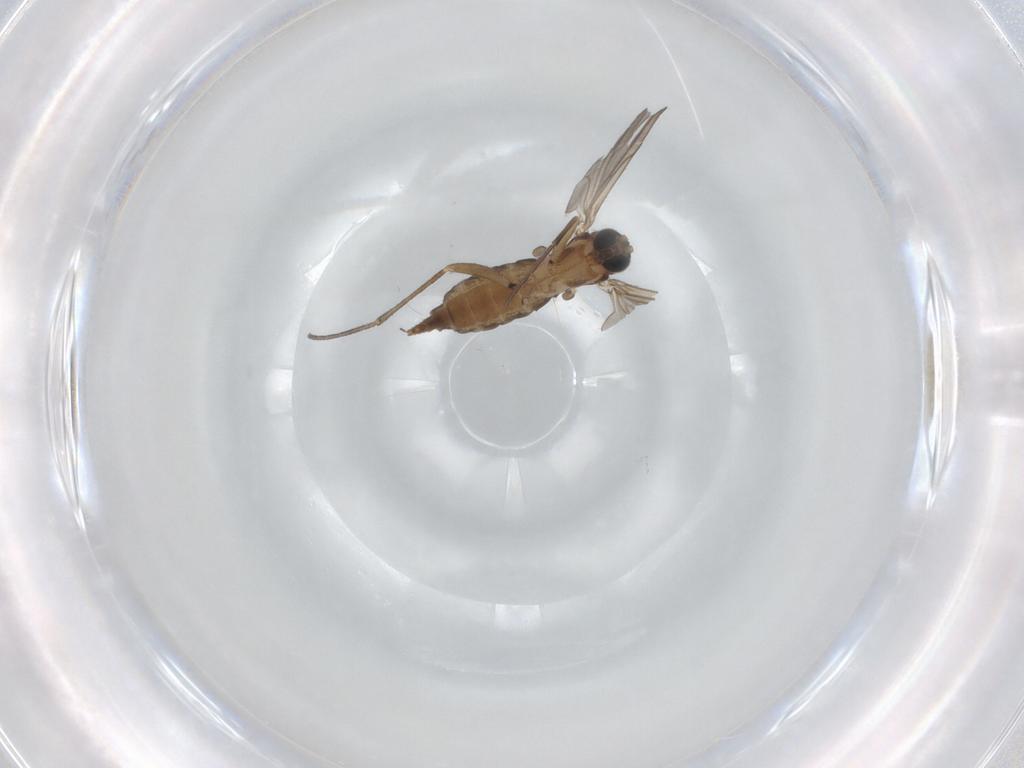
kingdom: Animalia
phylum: Arthropoda
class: Insecta
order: Diptera
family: Sciaridae
